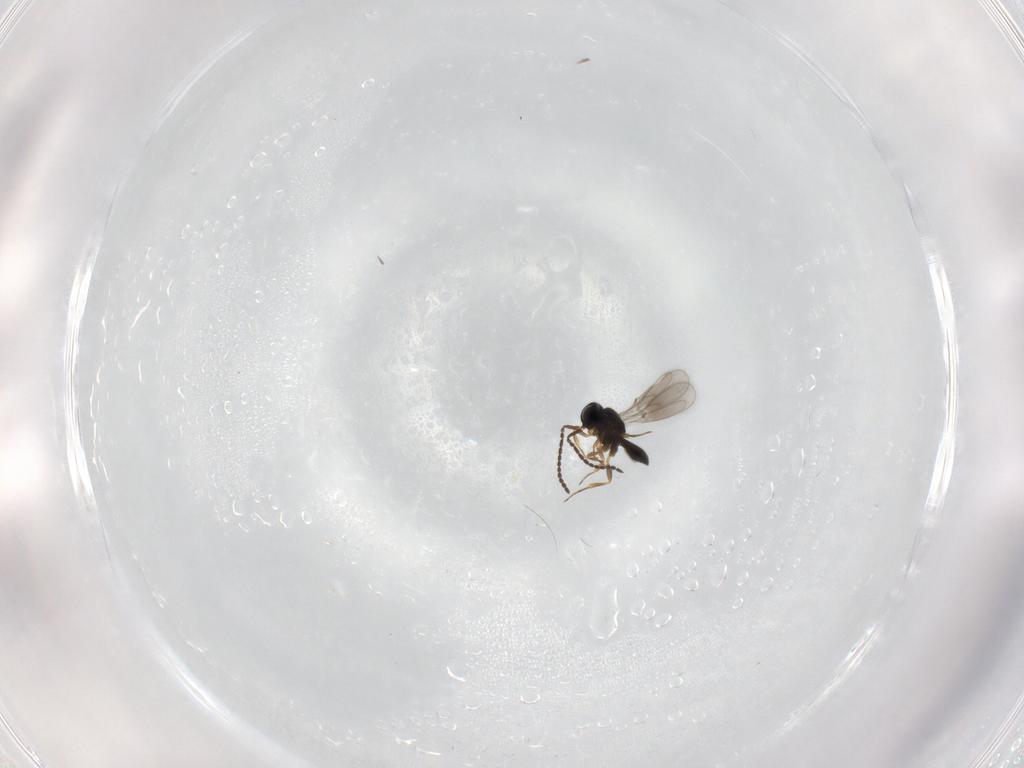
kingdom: Animalia
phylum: Arthropoda
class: Insecta
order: Hymenoptera
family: Scelionidae
